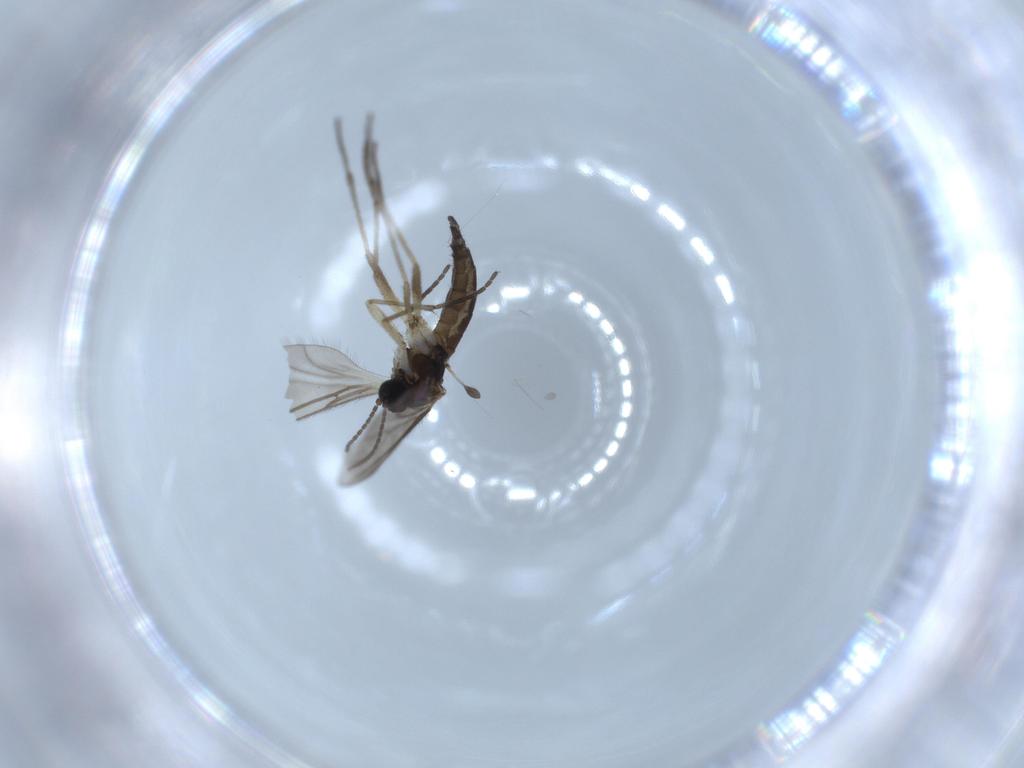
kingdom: Animalia
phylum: Arthropoda
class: Insecta
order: Diptera
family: Sciaridae
